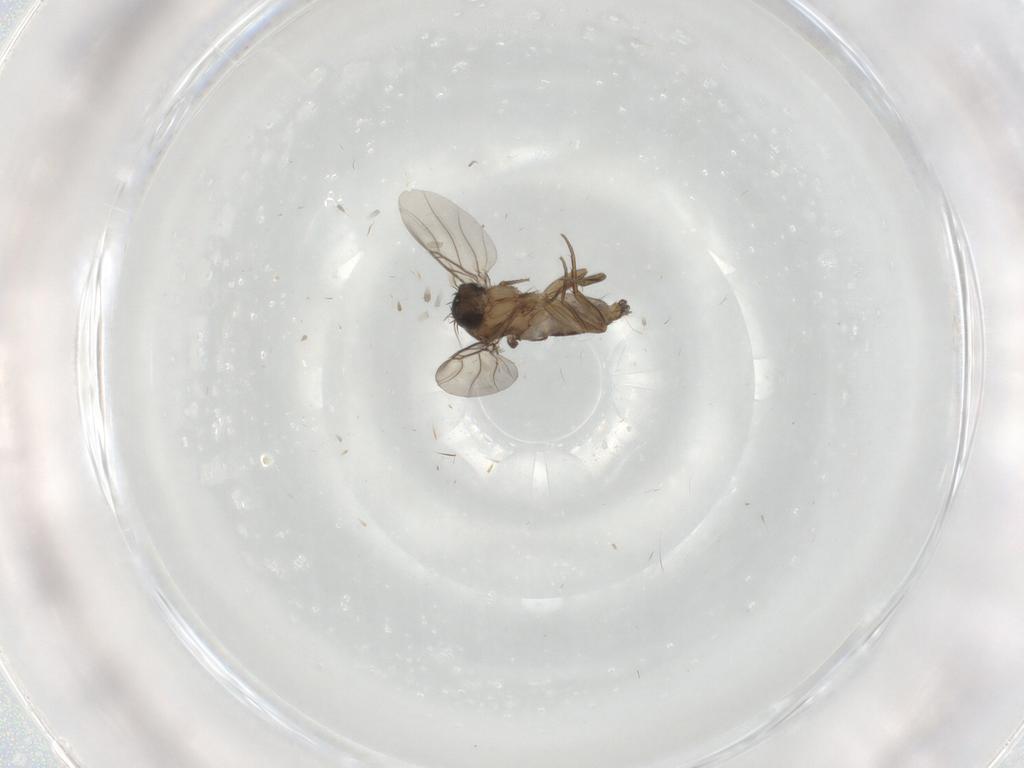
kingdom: Animalia
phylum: Arthropoda
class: Insecta
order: Diptera
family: Phoridae
